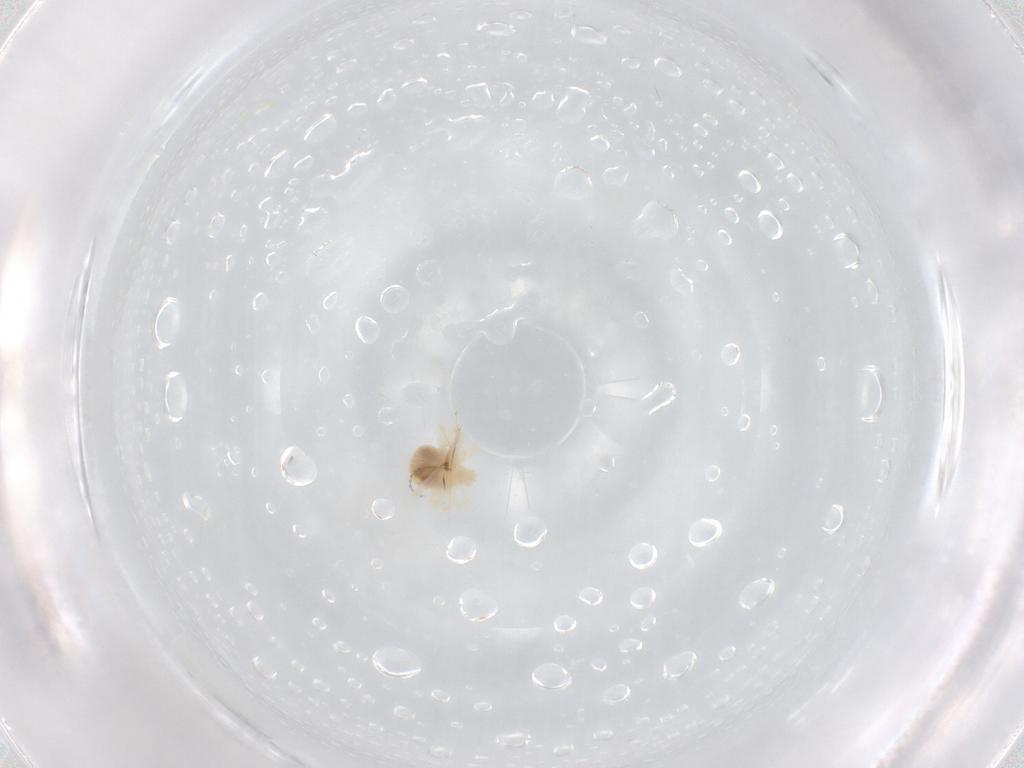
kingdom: Animalia
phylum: Arthropoda
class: Arachnida
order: Trombidiformes
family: Anystidae
